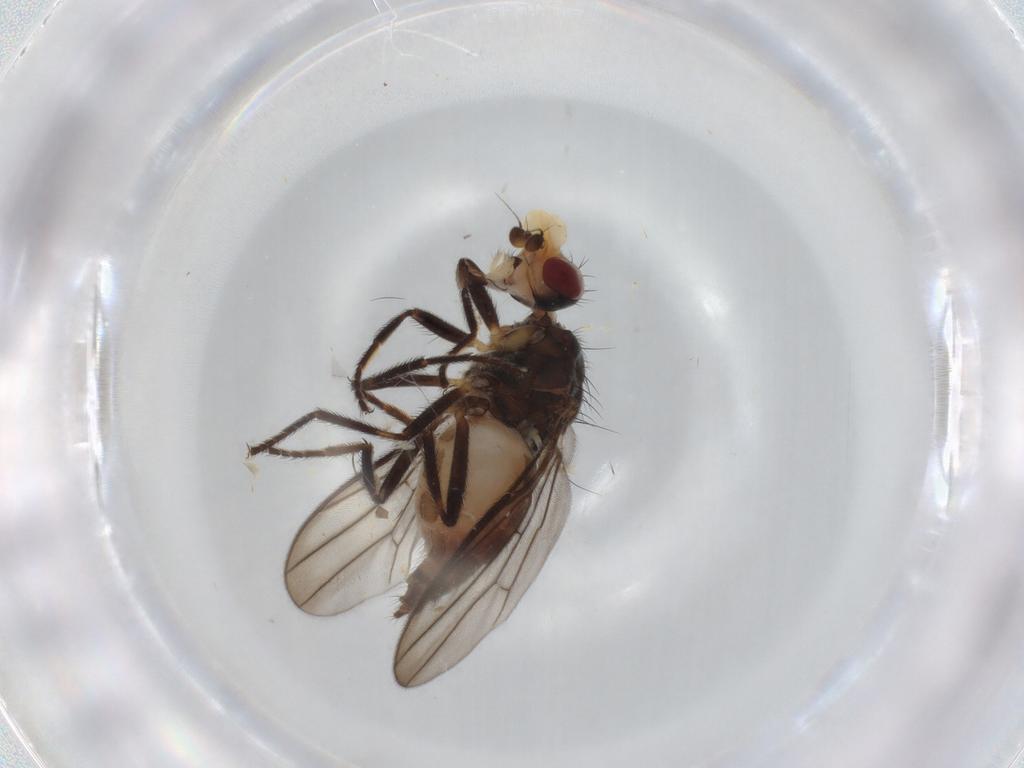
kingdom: Animalia
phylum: Arthropoda
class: Insecta
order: Diptera
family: Chloropidae
